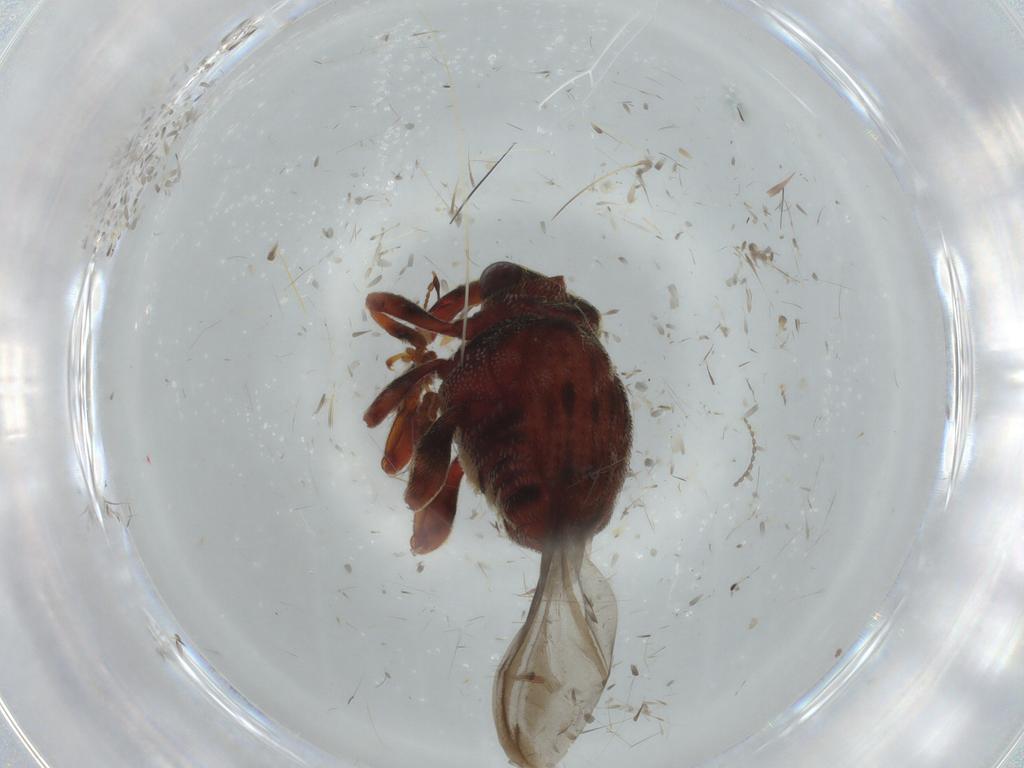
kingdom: Animalia
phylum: Arthropoda
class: Insecta
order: Coleoptera
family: Curculionidae
